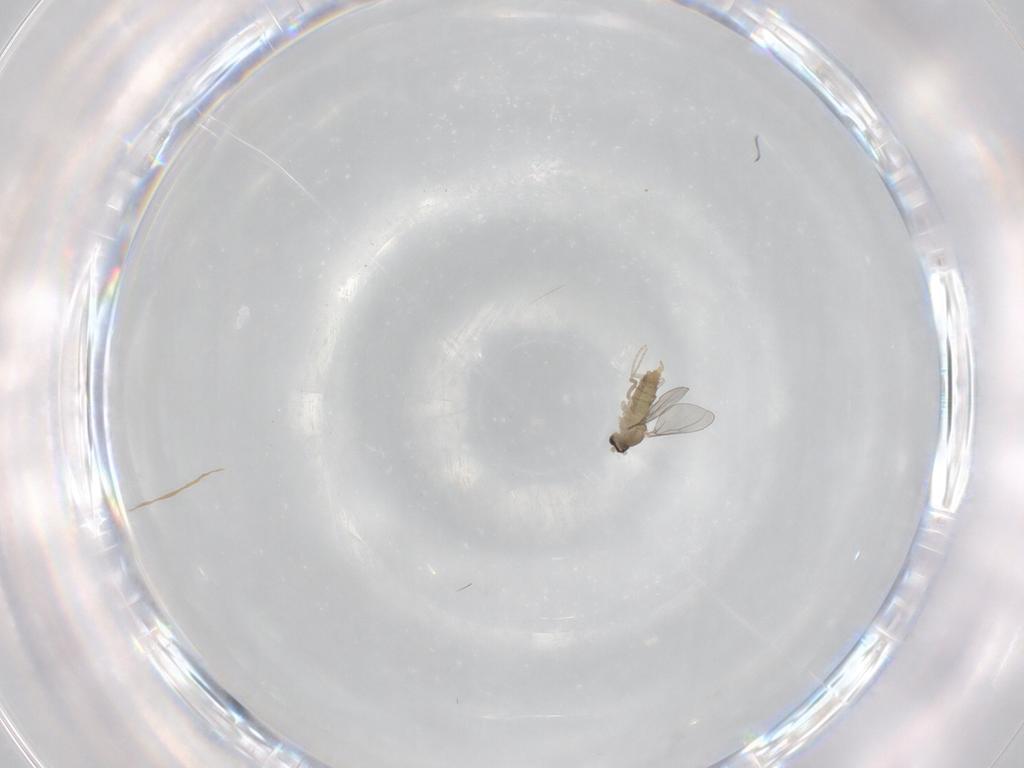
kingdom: Animalia
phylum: Arthropoda
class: Insecta
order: Diptera
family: Cecidomyiidae
